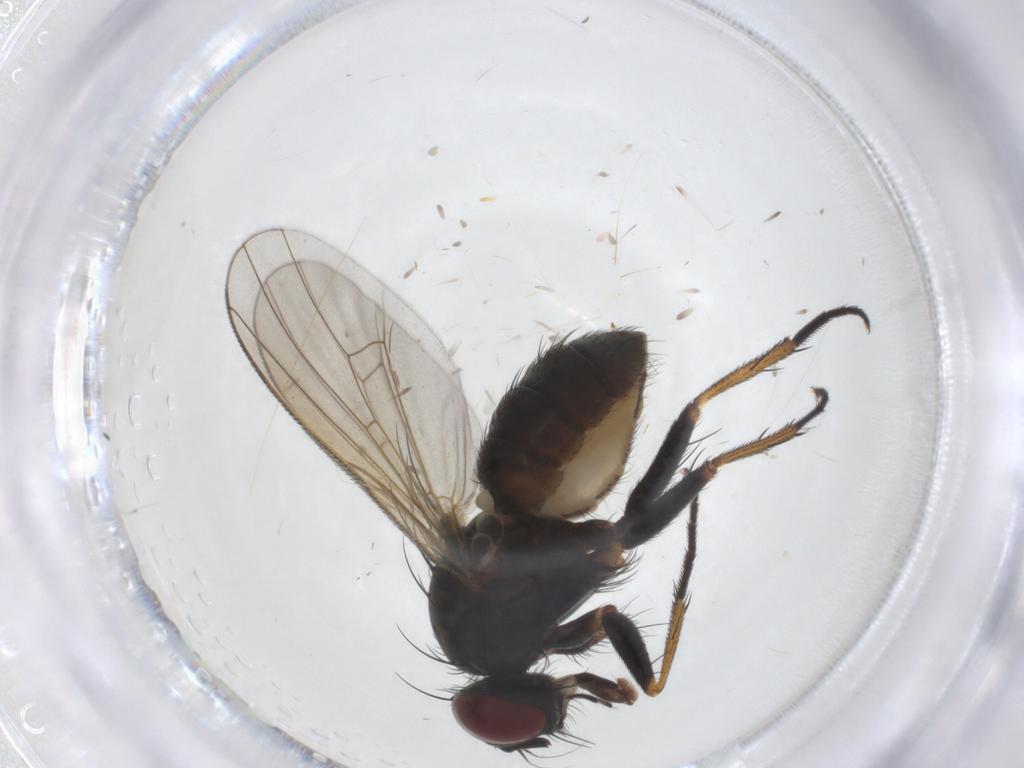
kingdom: Animalia
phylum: Arthropoda
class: Insecta
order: Diptera
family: Muscidae
